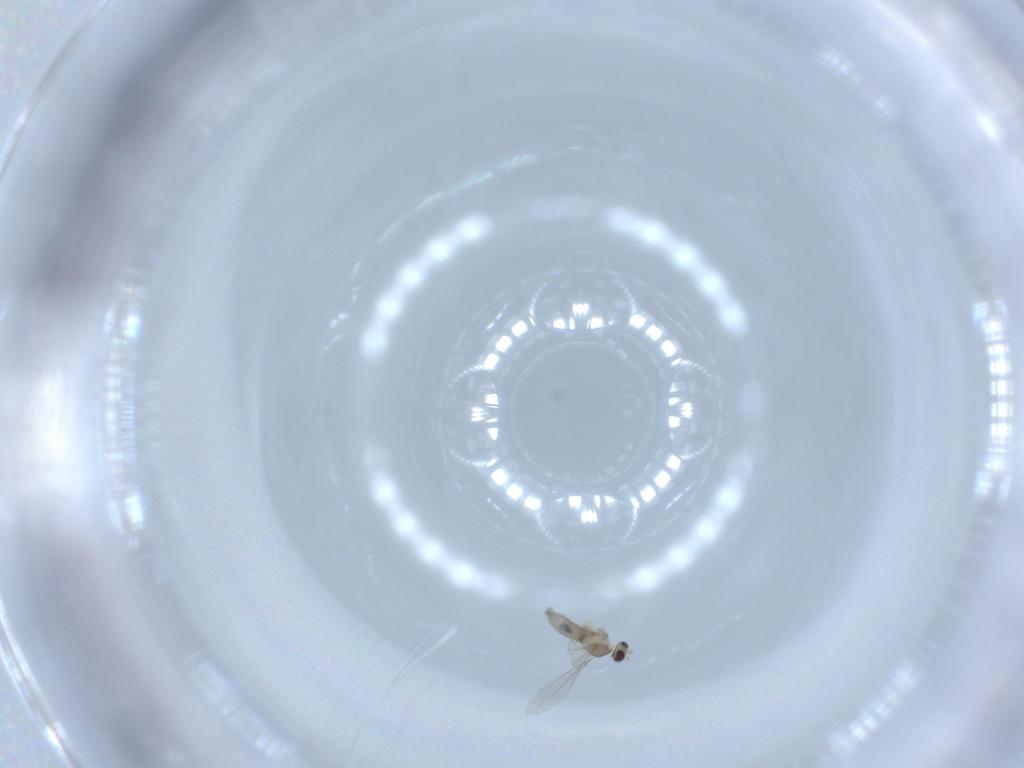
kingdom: Animalia
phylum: Arthropoda
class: Insecta
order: Diptera
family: Cecidomyiidae
